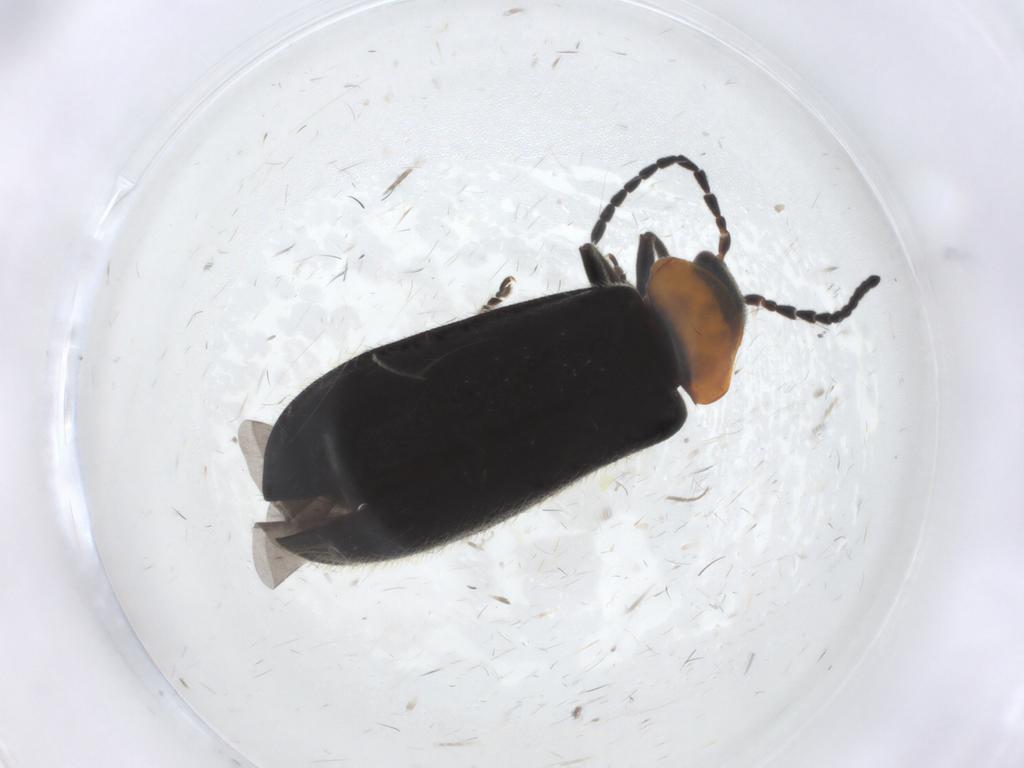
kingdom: Animalia
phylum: Arthropoda
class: Insecta
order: Coleoptera
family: Cantharidae
